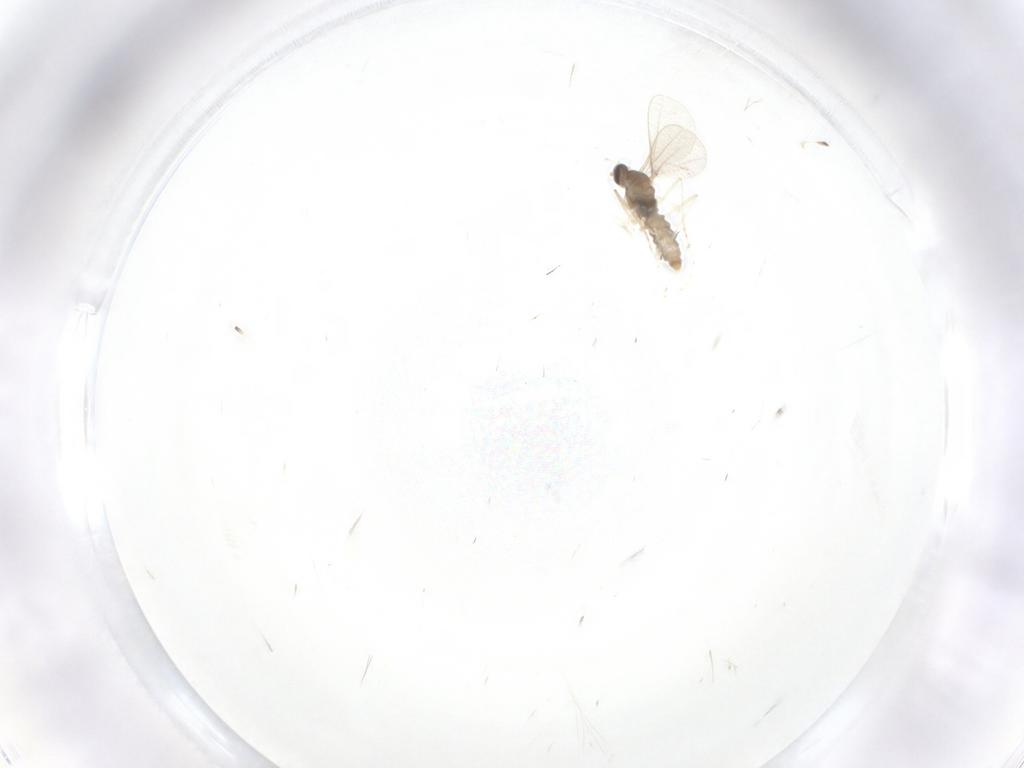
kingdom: Animalia
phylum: Arthropoda
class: Insecta
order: Diptera
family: Cecidomyiidae
